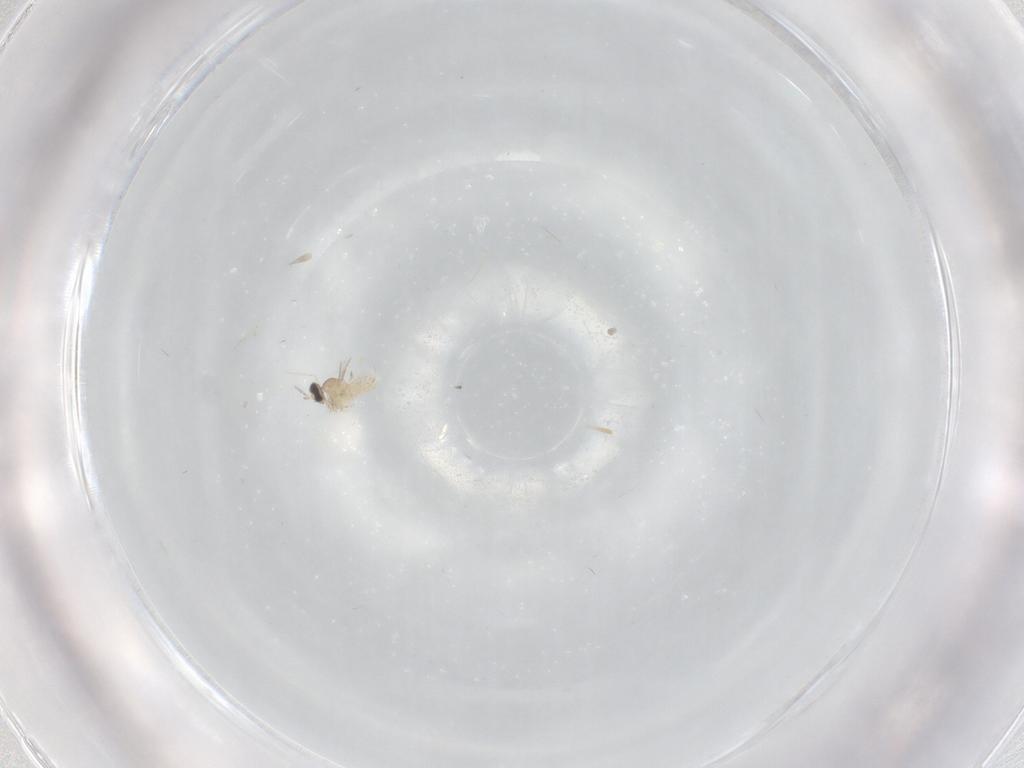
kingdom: Animalia
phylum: Arthropoda
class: Insecta
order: Diptera
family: Cecidomyiidae
